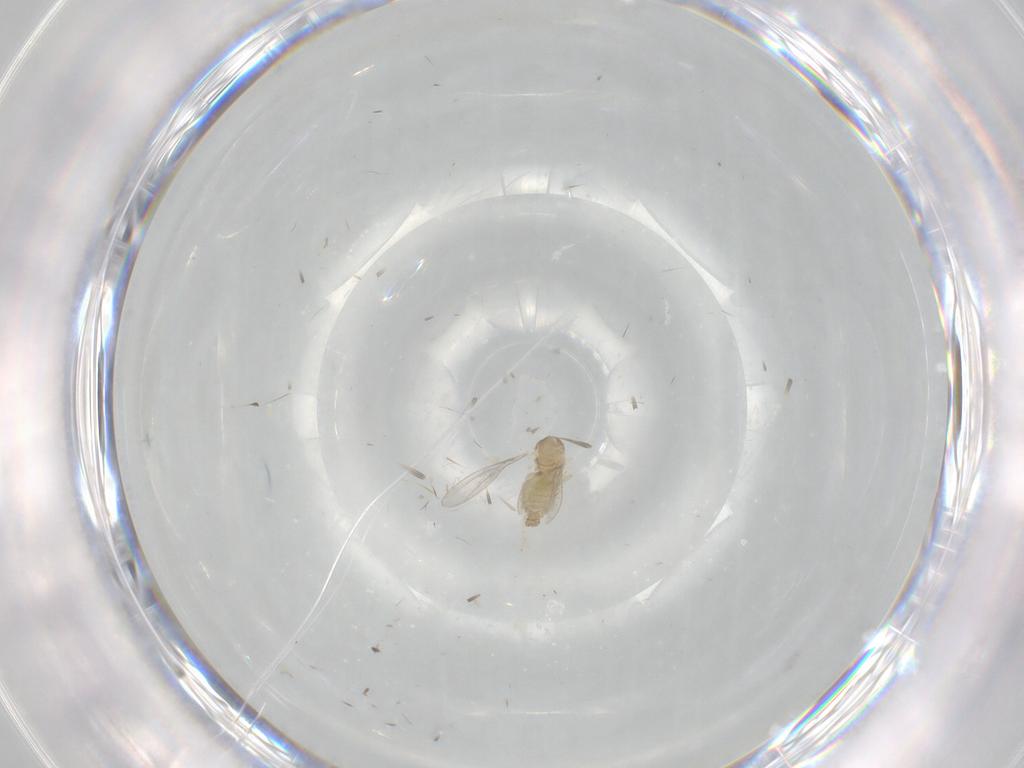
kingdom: Animalia
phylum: Arthropoda
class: Insecta
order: Diptera
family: Cecidomyiidae
